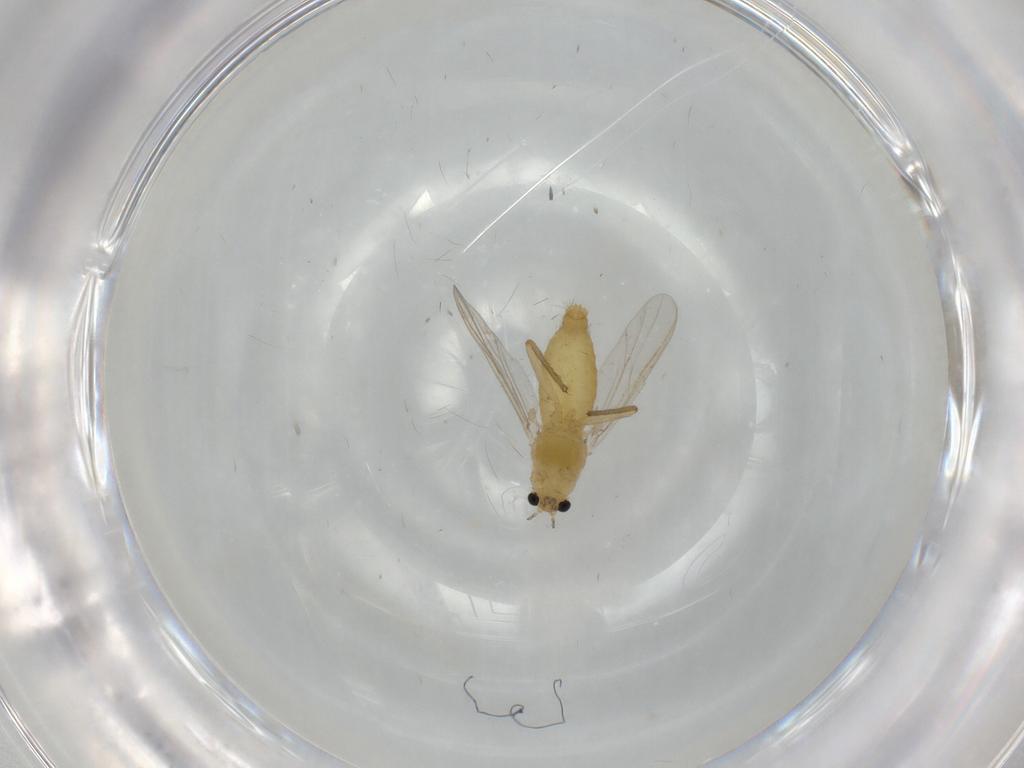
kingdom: Animalia
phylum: Arthropoda
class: Insecta
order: Diptera
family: Chironomidae
